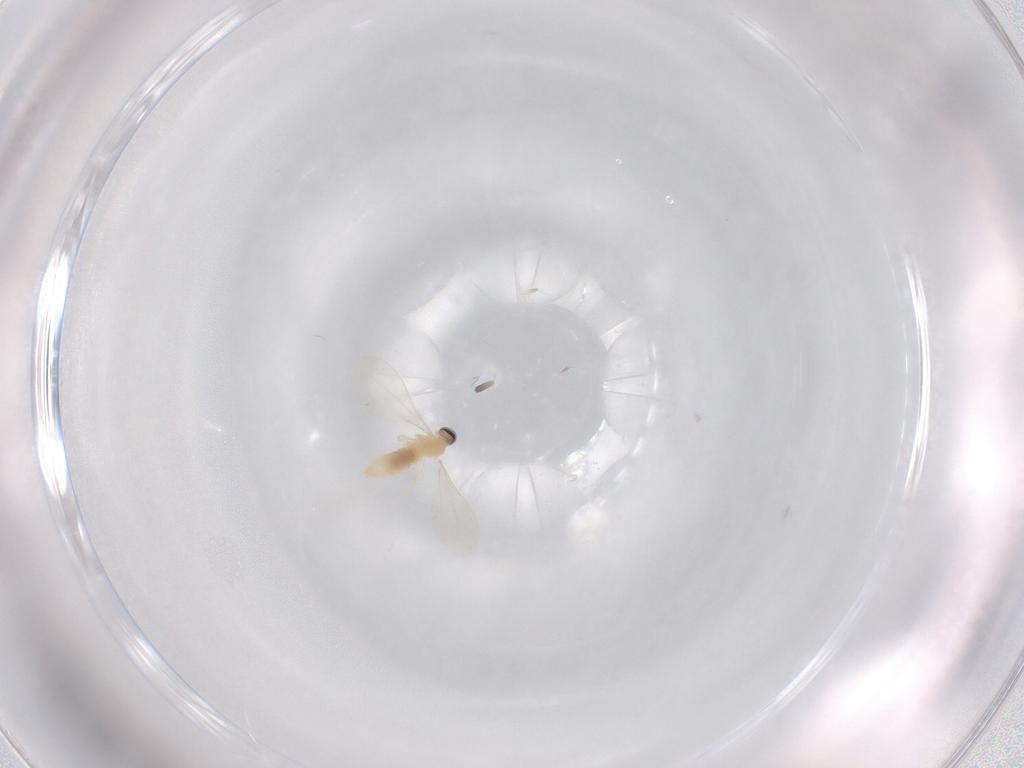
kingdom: Animalia
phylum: Arthropoda
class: Insecta
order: Diptera
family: Cecidomyiidae
